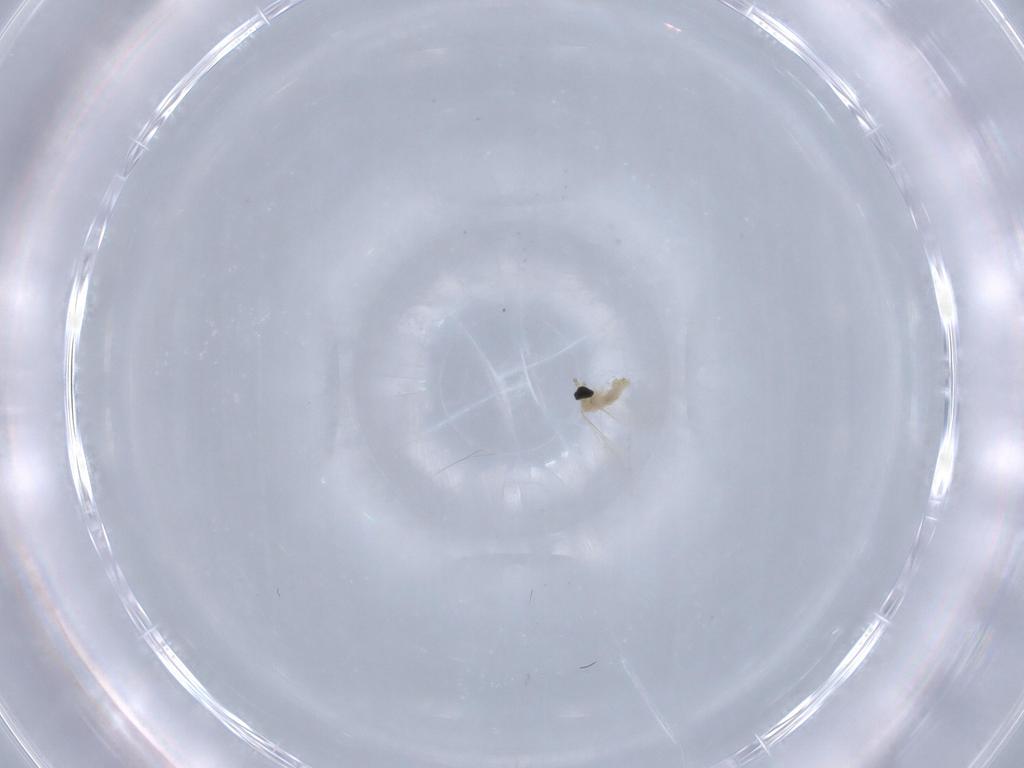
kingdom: Animalia
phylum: Arthropoda
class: Insecta
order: Diptera
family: Cecidomyiidae
